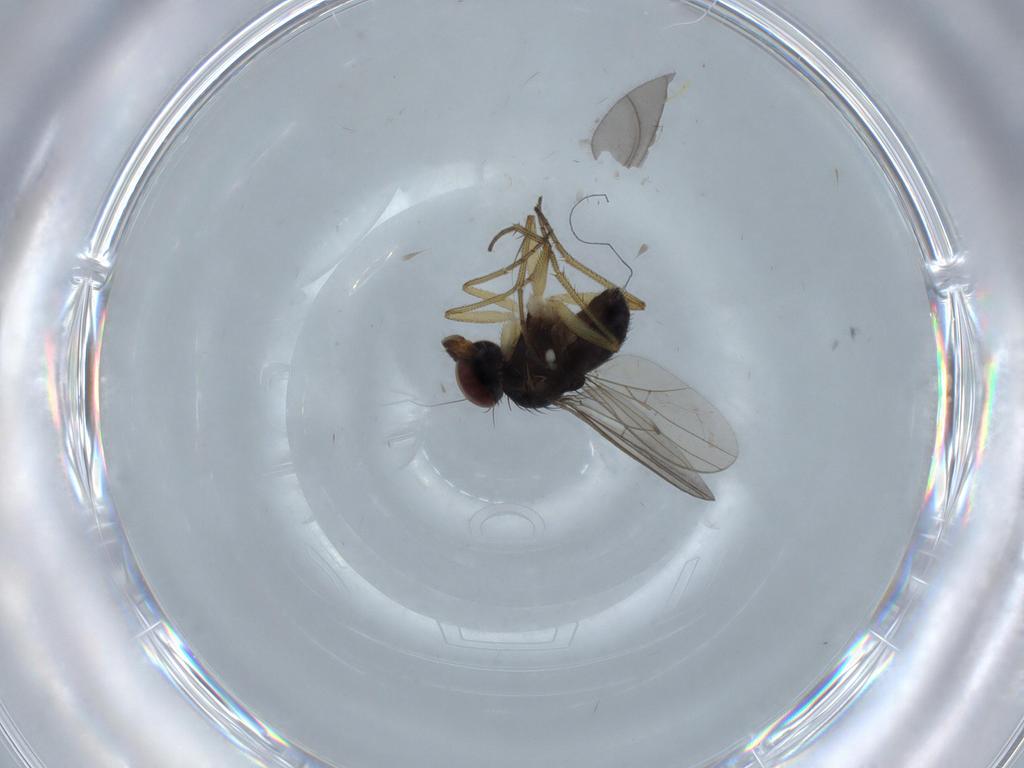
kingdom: Animalia
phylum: Arthropoda
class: Insecta
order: Diptera
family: Dolichopodidae
